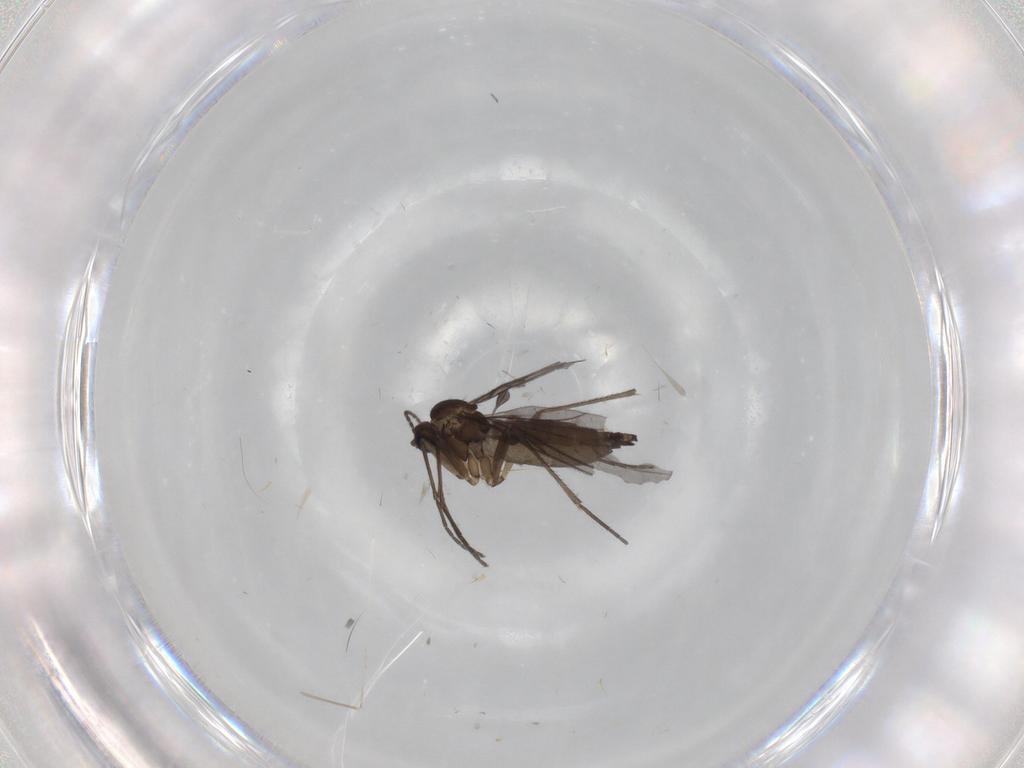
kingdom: Animalia
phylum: Arthropoda
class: Insecta
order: Diptera
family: Sciaridae
